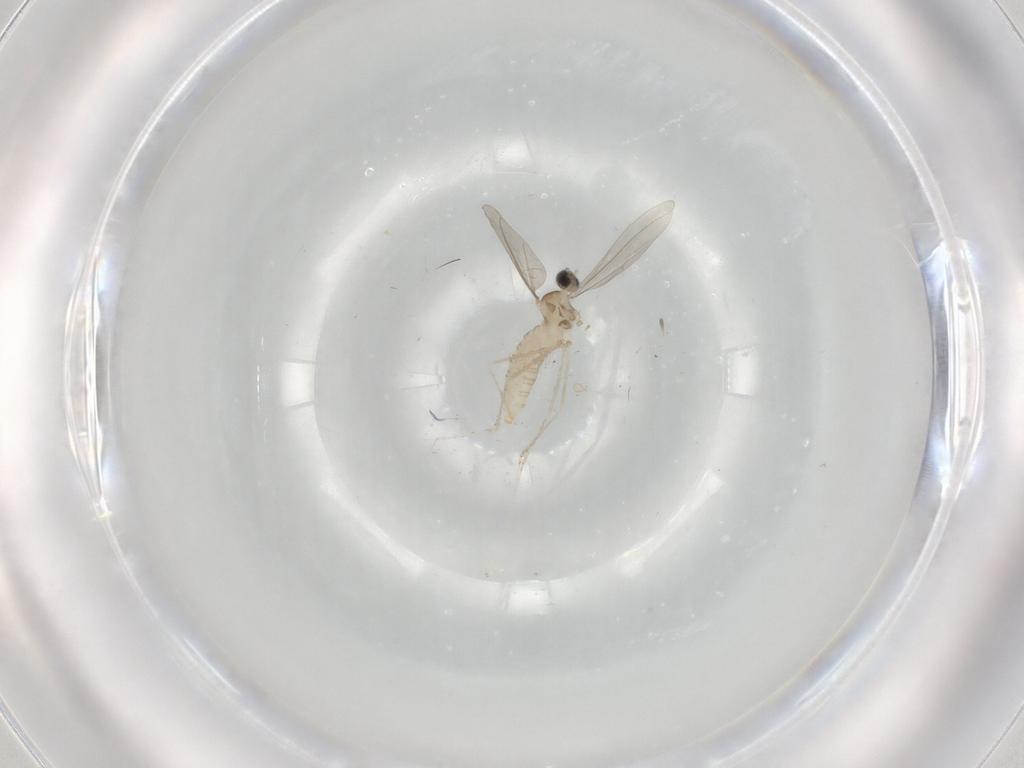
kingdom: Animalia
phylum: Arthropoda
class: Insecta
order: Diptera
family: Cecidomyiidae
